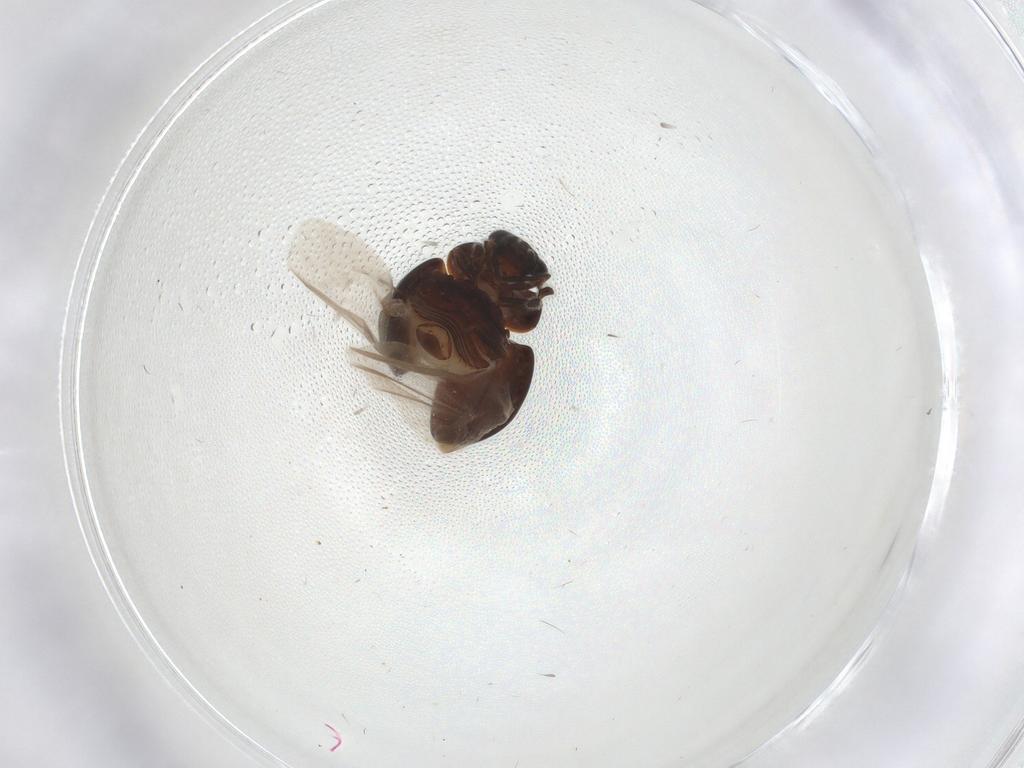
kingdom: Animalia
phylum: Arthropoda
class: Insecta
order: Coleoptera
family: Anamorphidae
